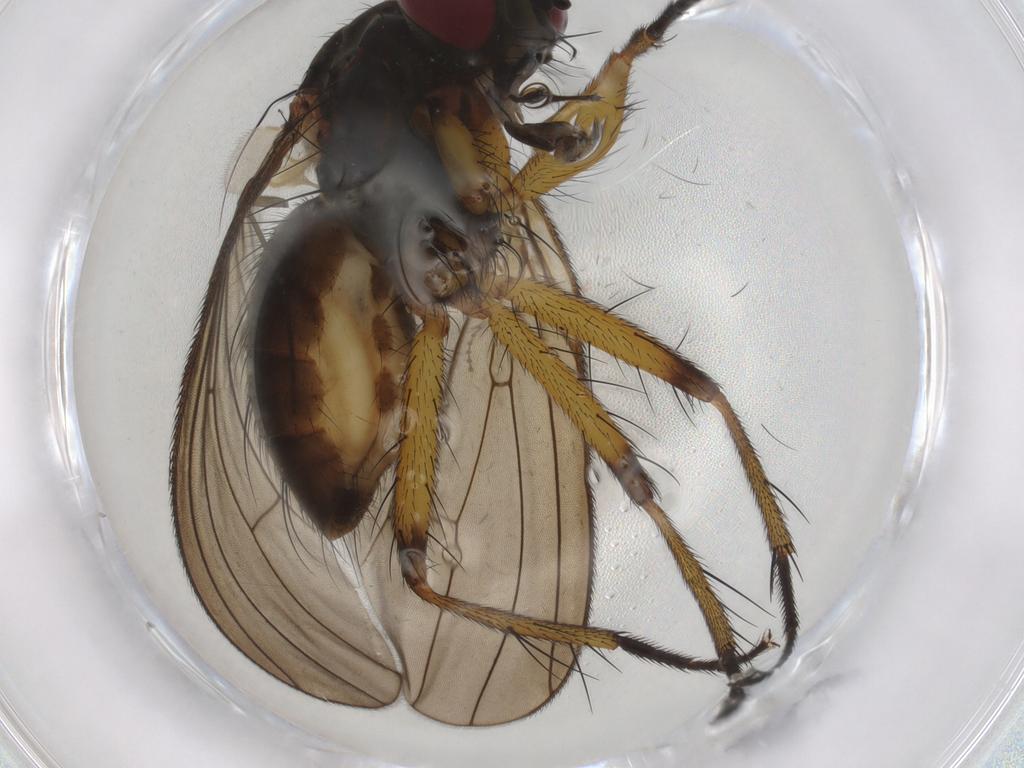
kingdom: Animalia
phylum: Arthropoda
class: Insecta
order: Diptera
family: Muscidae
